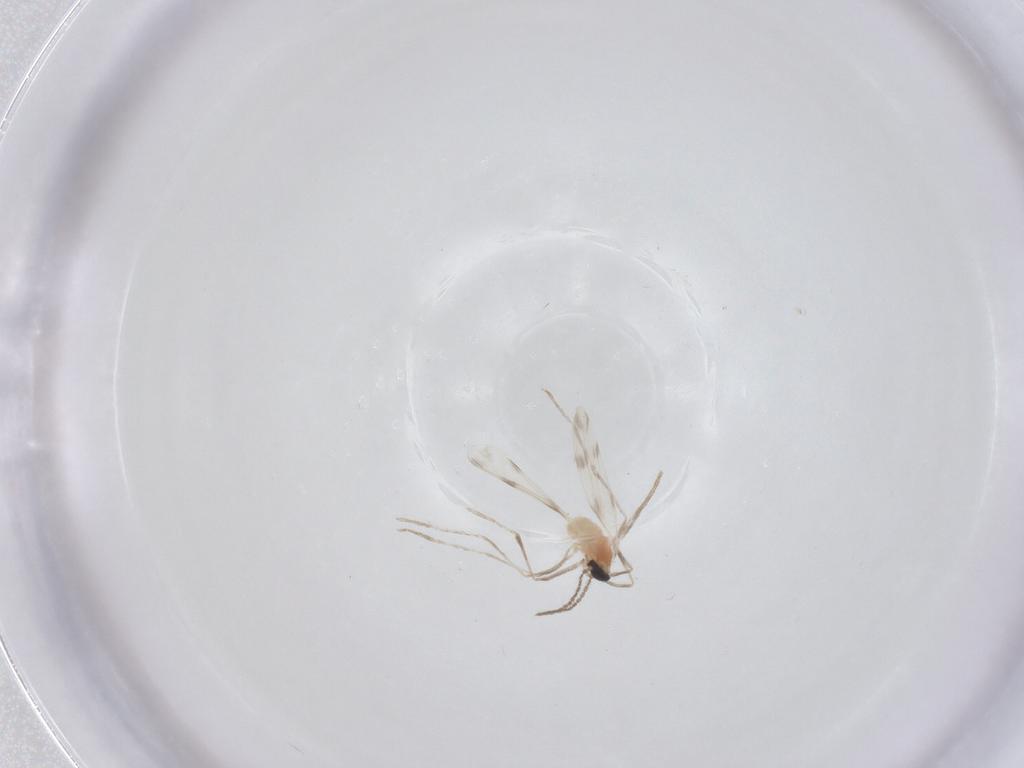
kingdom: Animalia
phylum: Arthropoda
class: Insecta
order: Diptera
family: Cecidomyiidae
